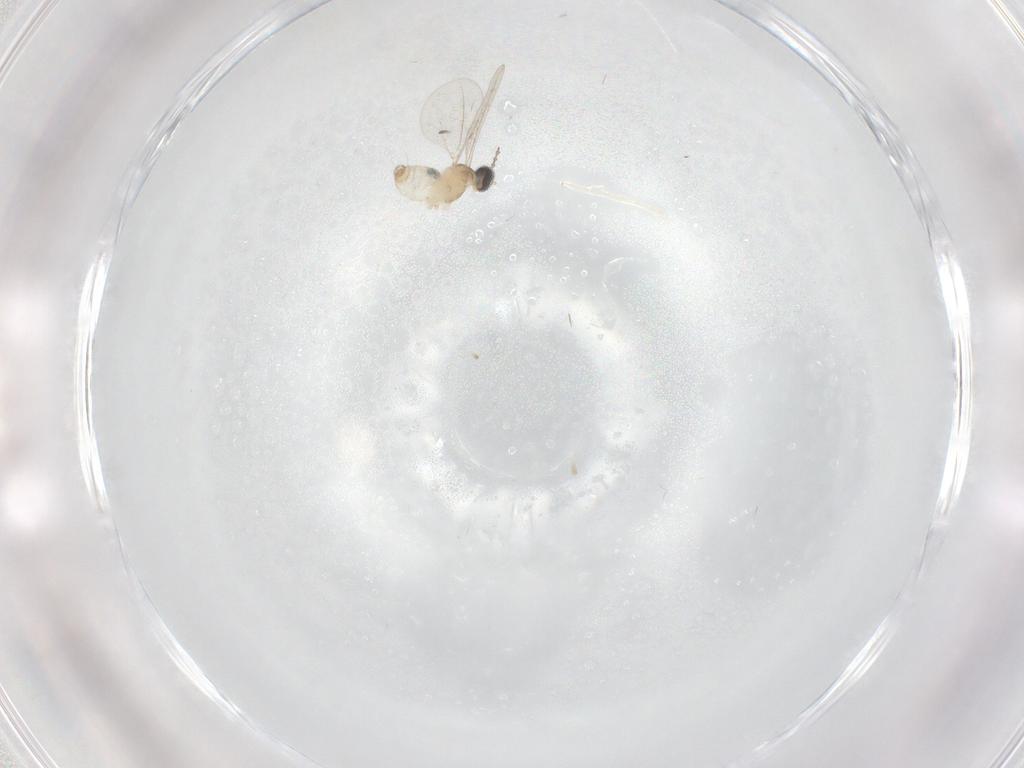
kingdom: Animalia
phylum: Arthropoda
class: Insecta
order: Diptera
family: Cecidomyiidae
